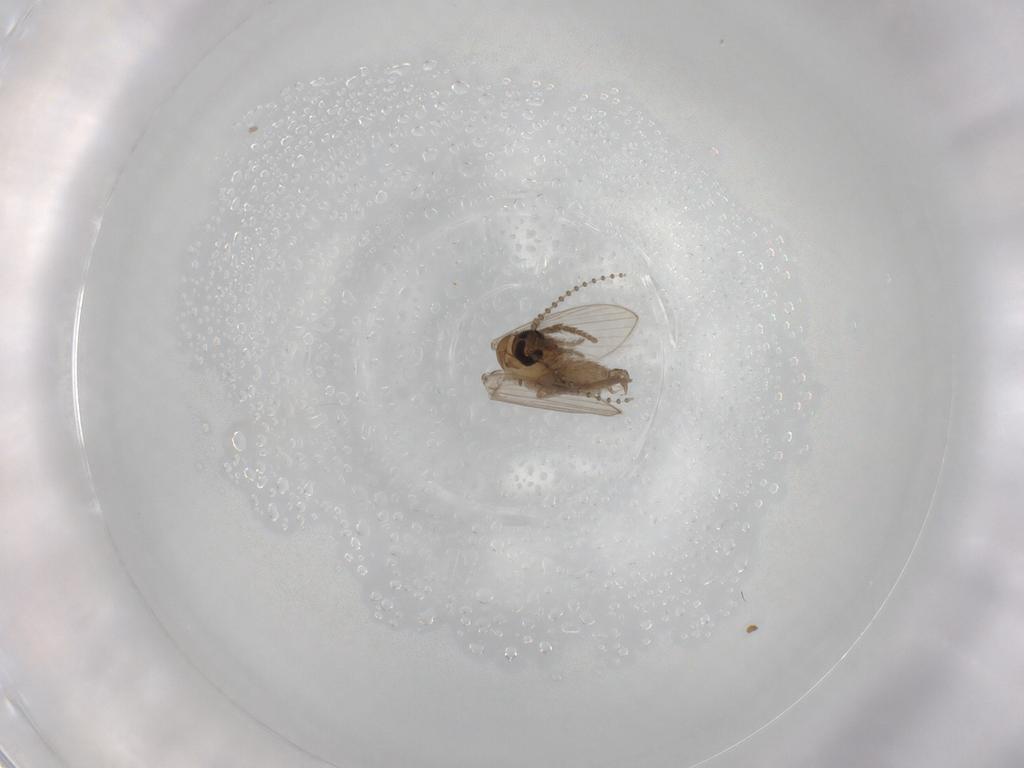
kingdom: Animalia
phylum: Arthropoda
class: Insecta
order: Diptera
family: Psychodidae
